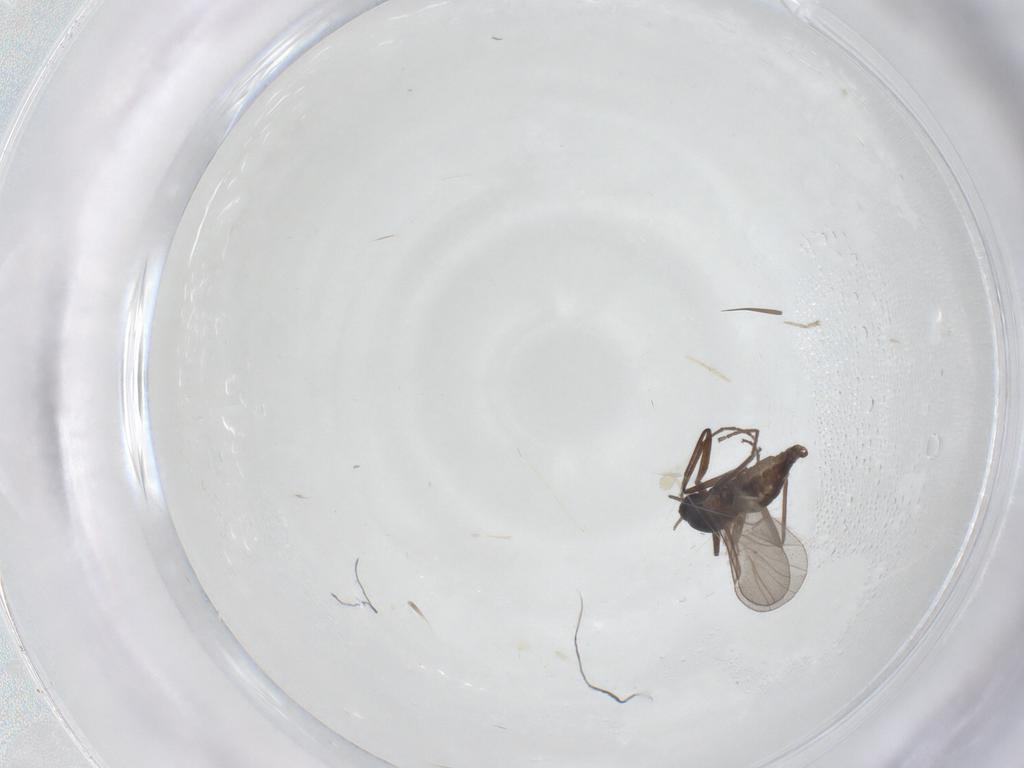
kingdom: Animalia
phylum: Arthropoda
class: Insecta
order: Diptera
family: Cecidomyiidae
